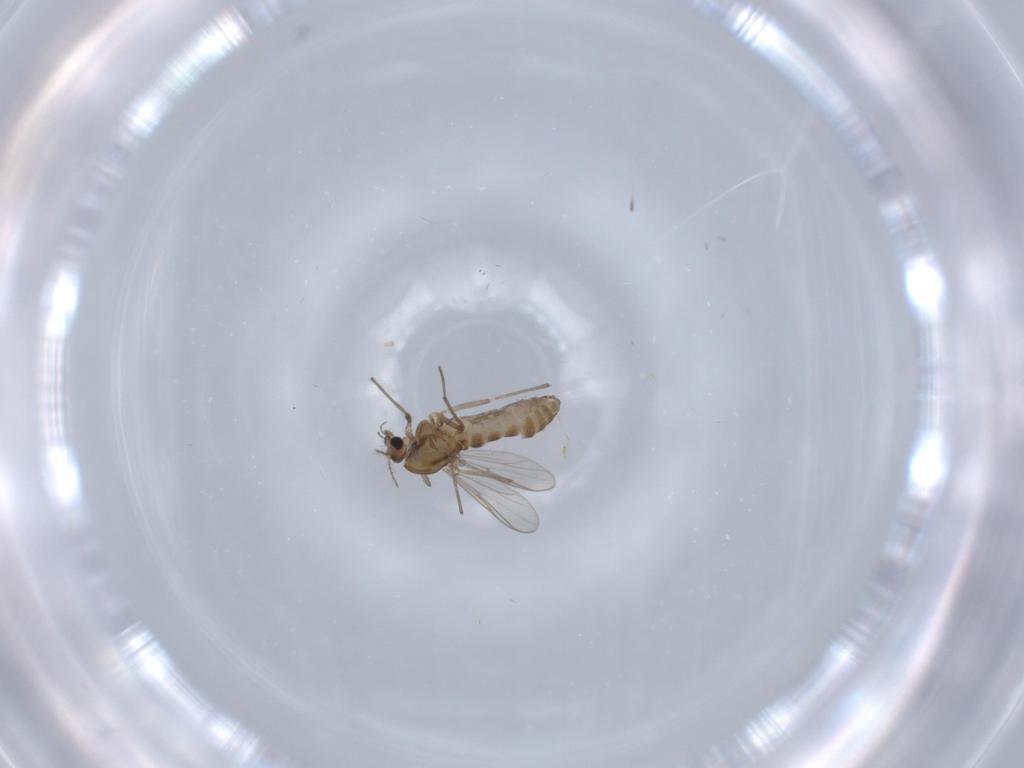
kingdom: Animalia
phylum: Arthropoda
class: Insecta
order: Diptera
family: Chironomidae
